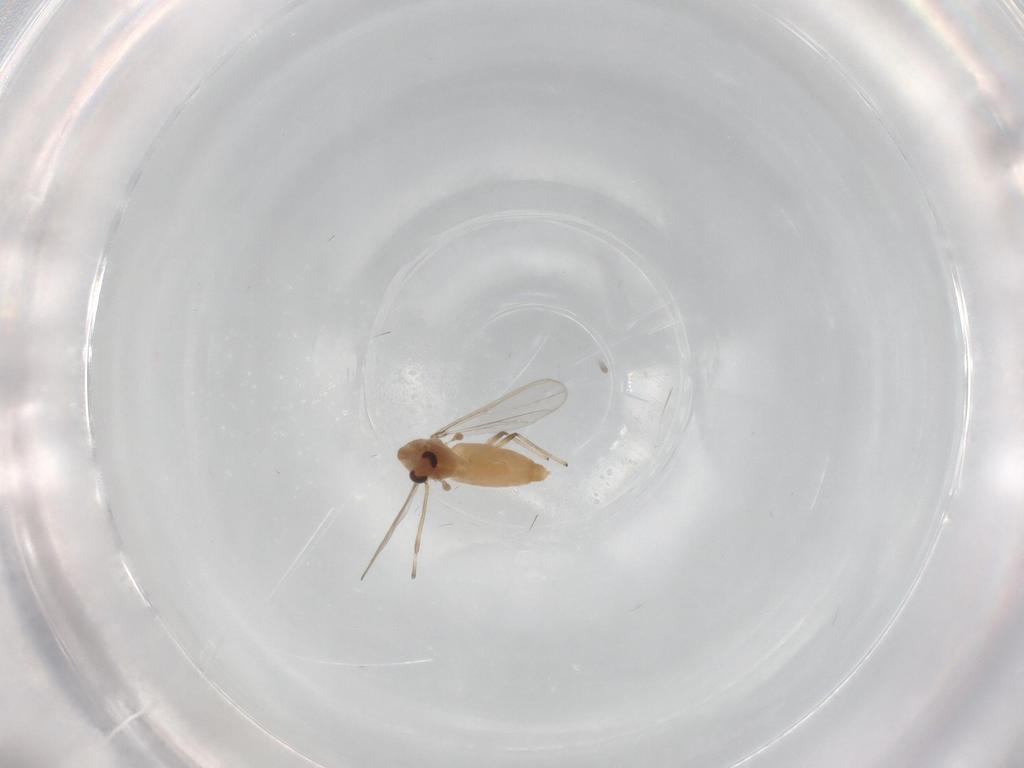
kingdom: Animalia
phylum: Arthropoda
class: Insecta
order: Diptera
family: Chironomidae
